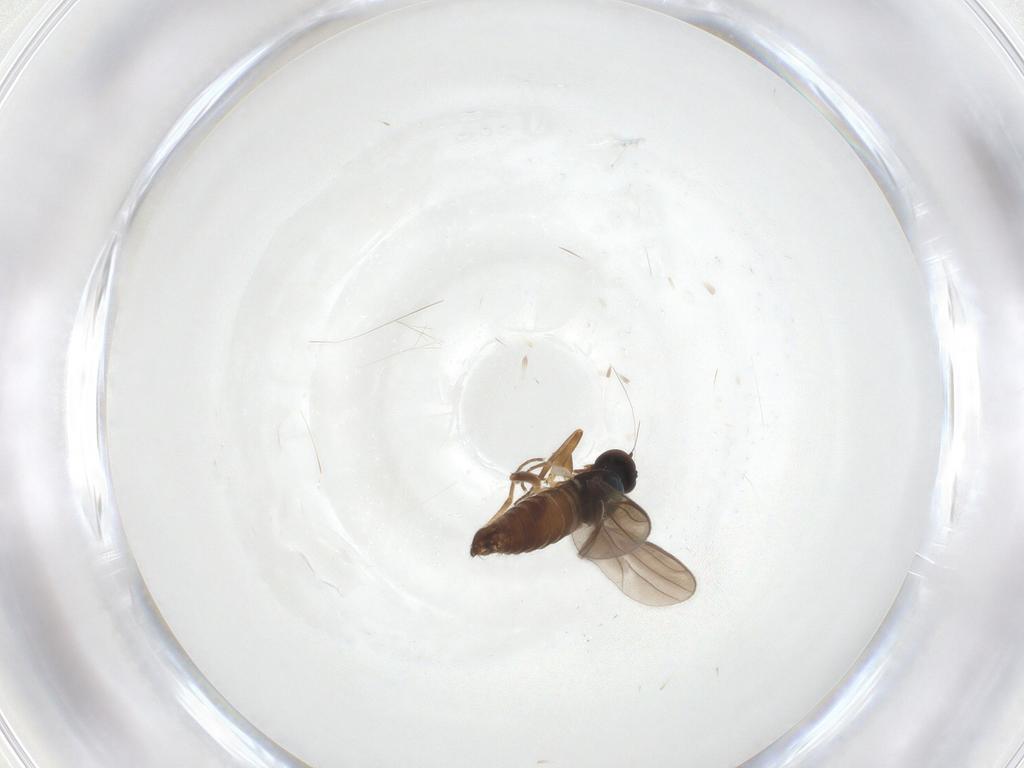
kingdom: Animalia
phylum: Arthropoda
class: Insecta
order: Diptera
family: Hybotidae
